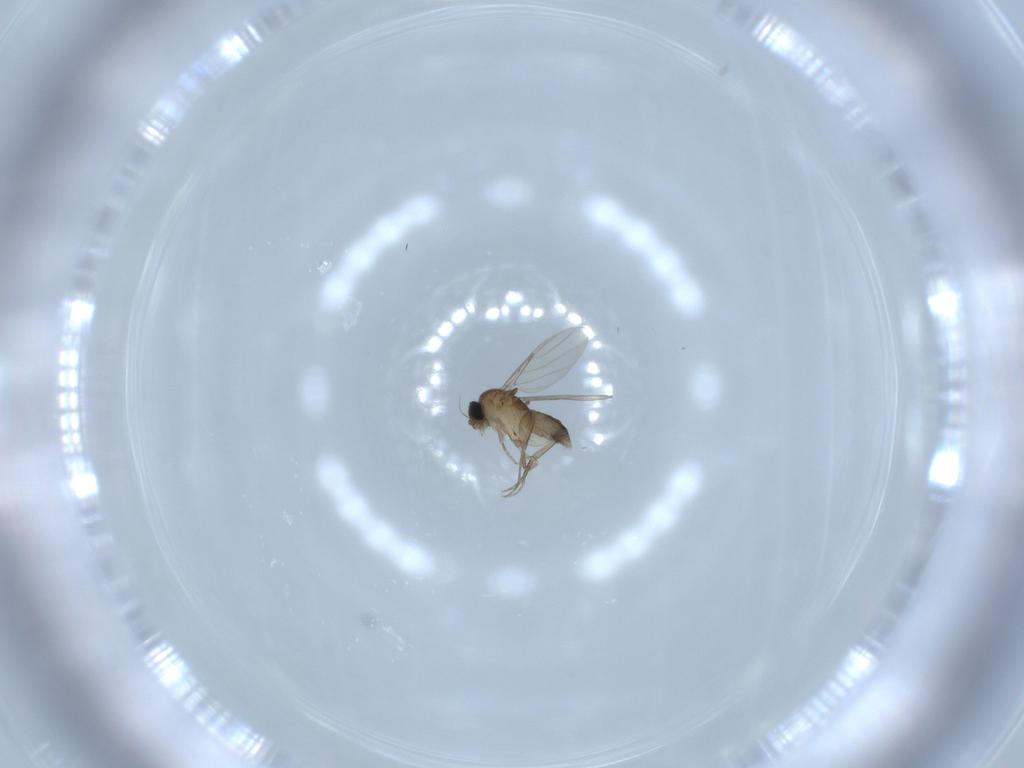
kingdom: Animalia
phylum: Arthropoda
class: Insecta
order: Diptera
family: Phoridae
